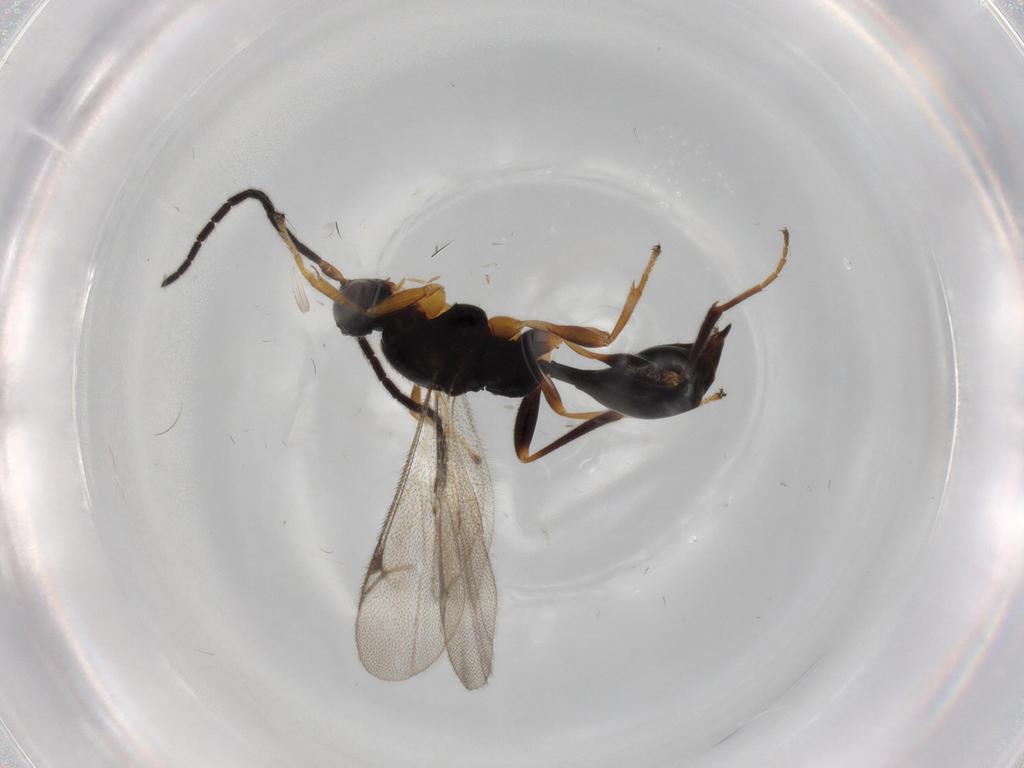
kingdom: Animalia
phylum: Arthropoda
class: Insecta
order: Hymenoptera
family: Proctotrupidae
